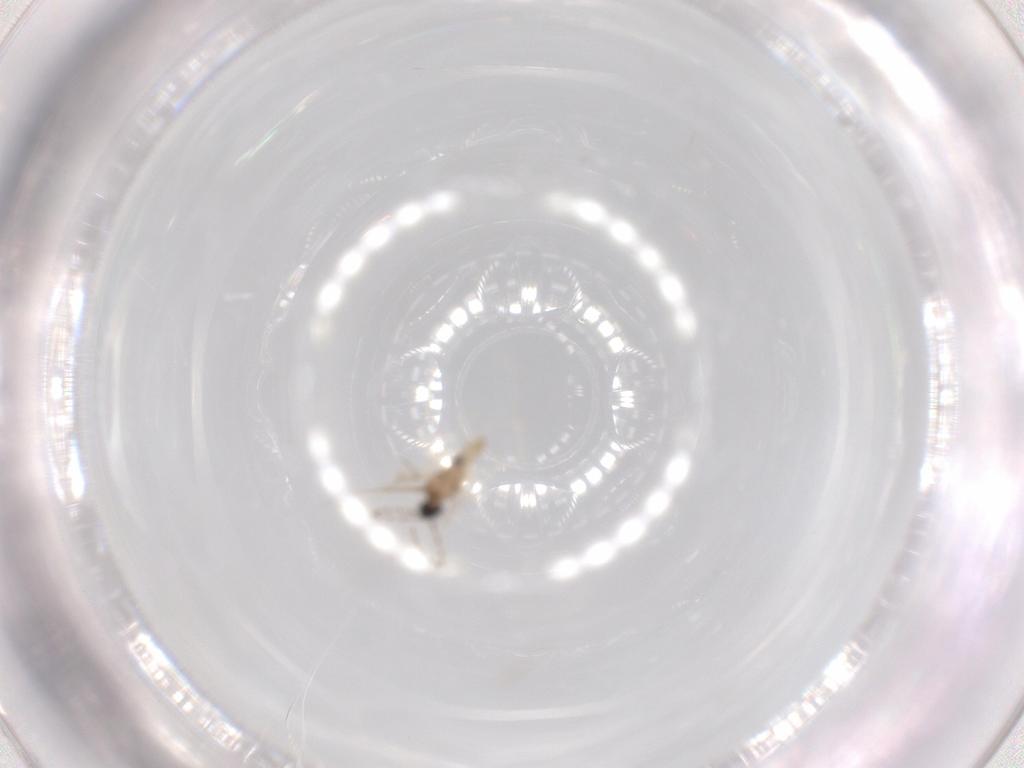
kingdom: Animalia
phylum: Arthropoda
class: Insecta
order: Diptera
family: Cecidomyiidae
